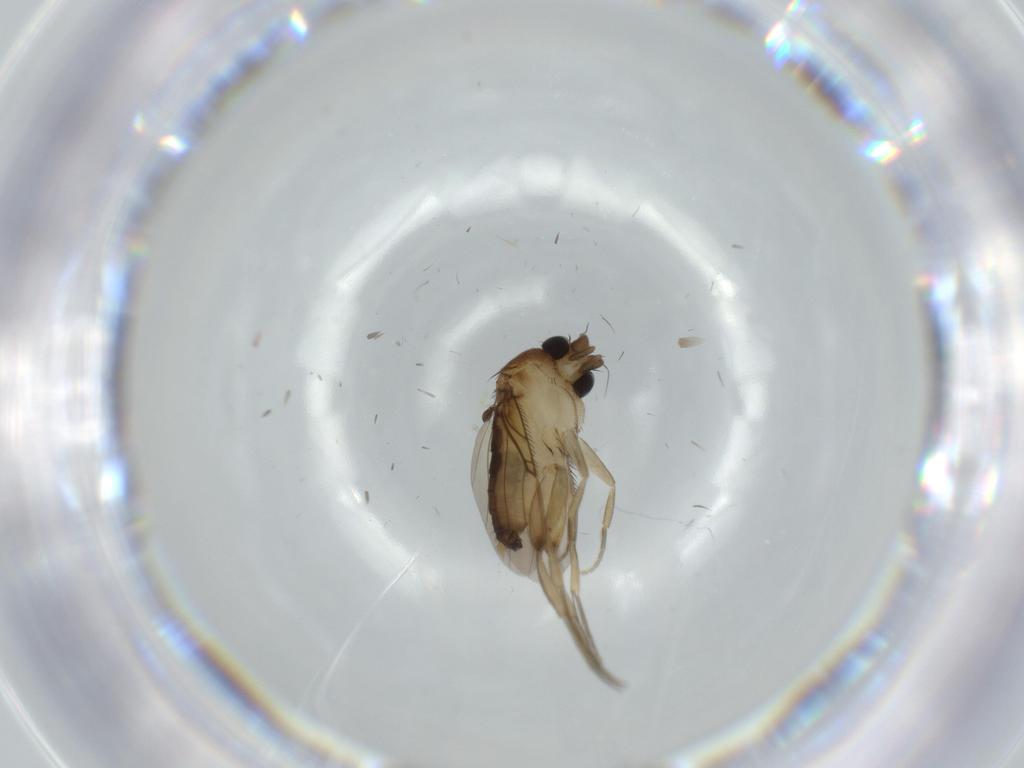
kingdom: Animalia
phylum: Arthropoda
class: Insecta
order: Diptera
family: Phoridae
